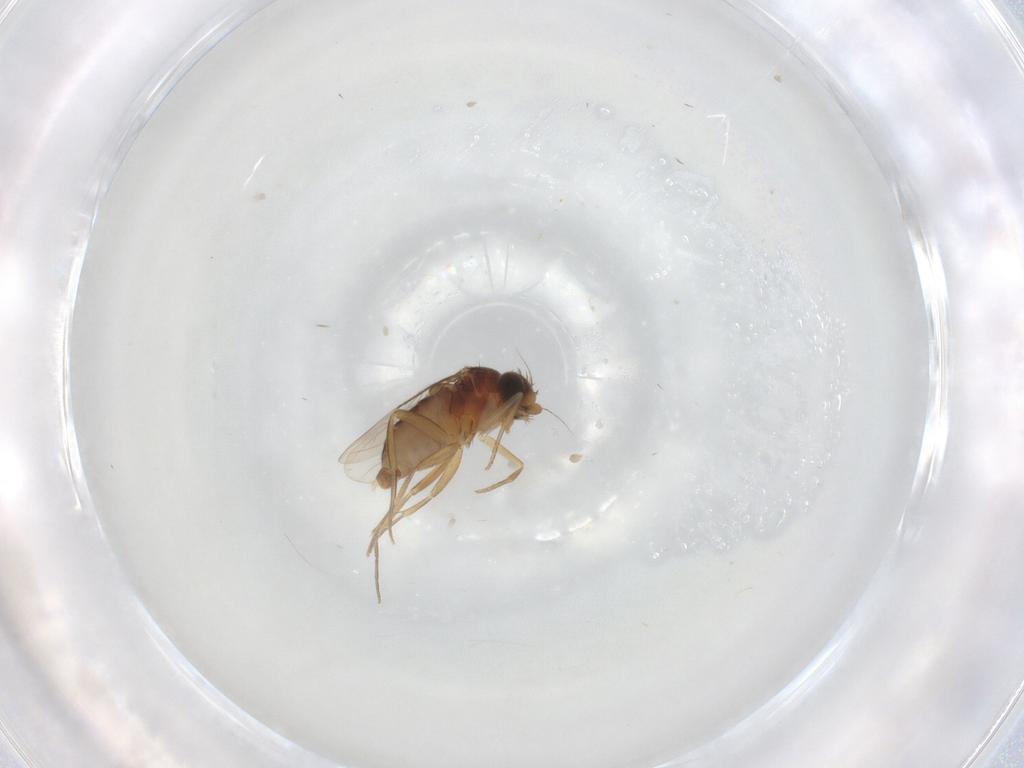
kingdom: Animalia
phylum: Arthropoda
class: Insecta
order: Diptera
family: Phoridae
